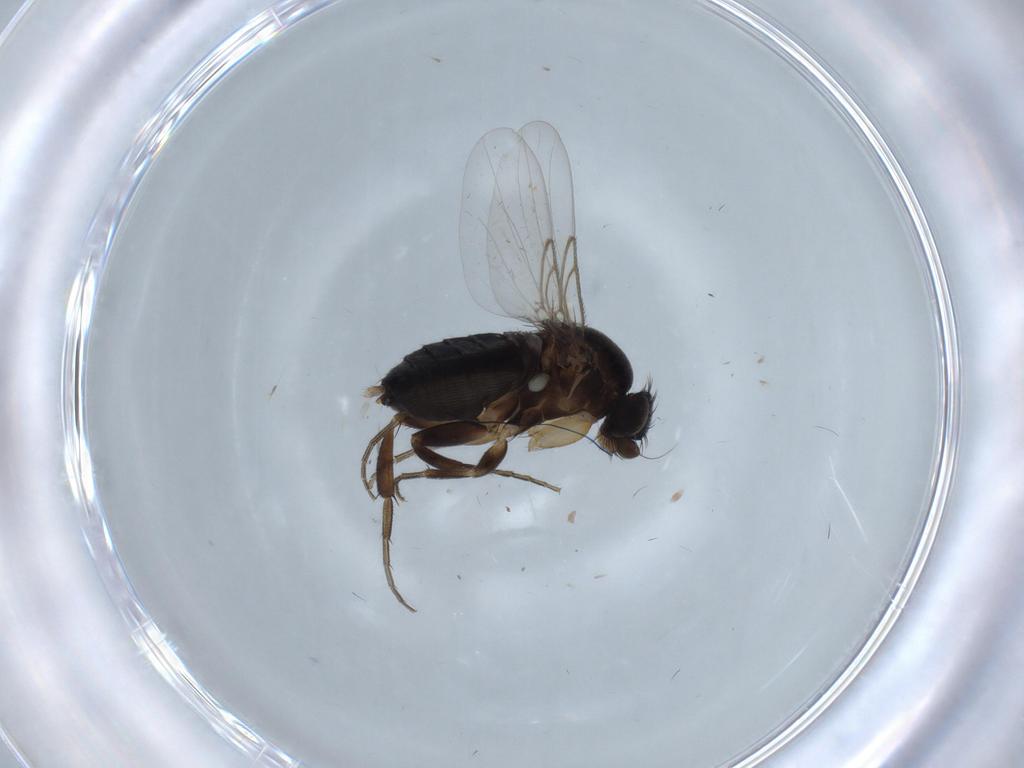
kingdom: Animalia
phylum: Arthropoda
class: Insecta
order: Diptera
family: Phoridae
